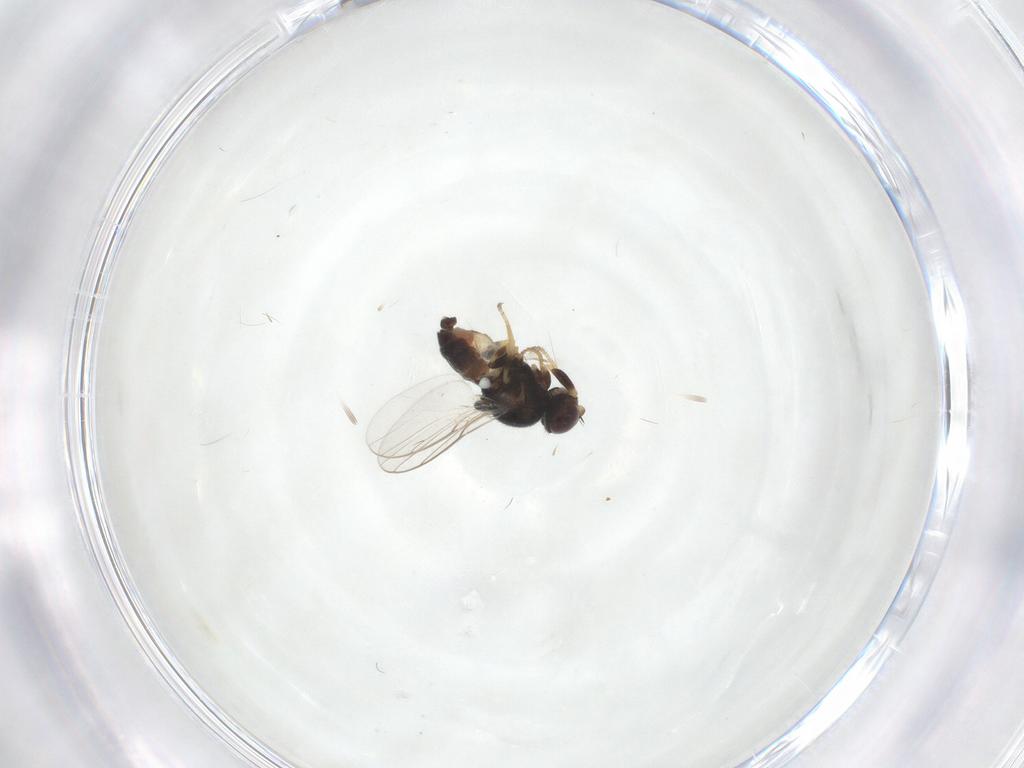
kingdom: Animalia
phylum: Arthropoda
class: Insecta
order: Diptera
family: Chloropidae
